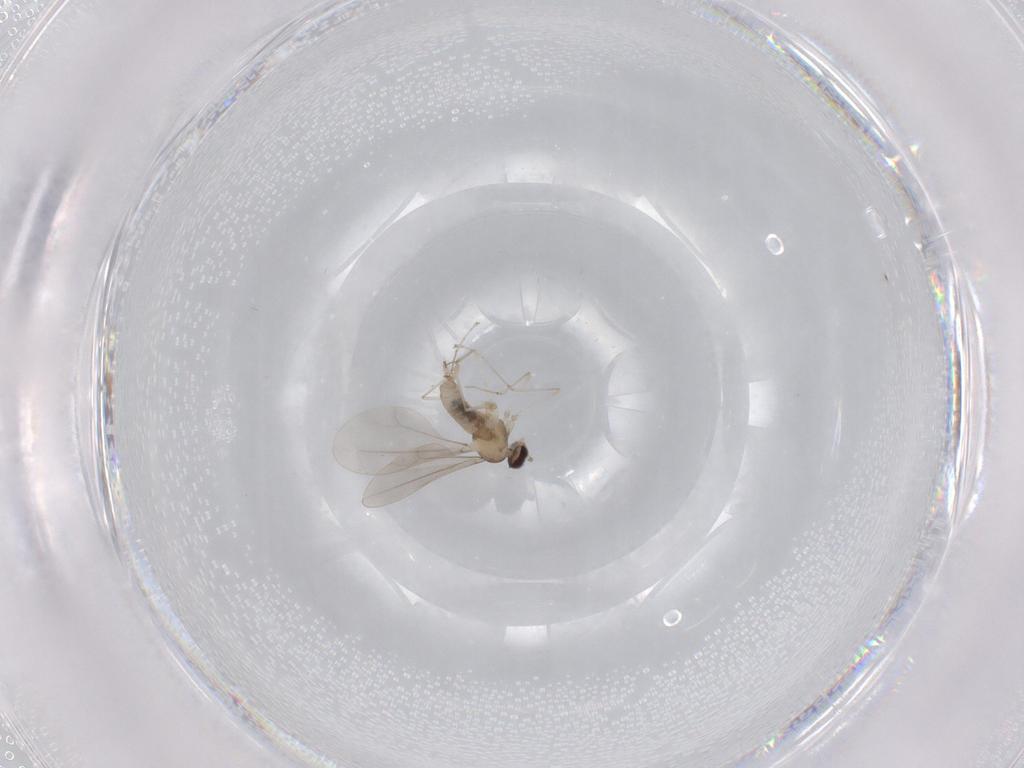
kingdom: Animalia
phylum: Arthropoda
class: Insecta
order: Diptera
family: Cecidomyiidae
